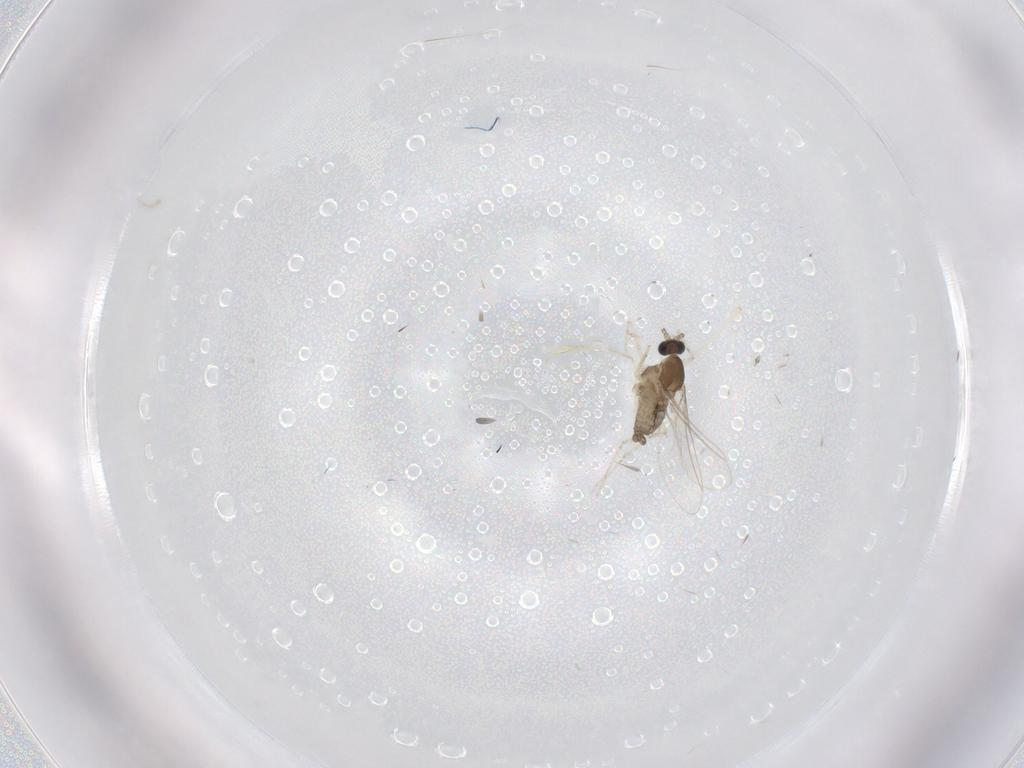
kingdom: Animalia
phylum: Arthropoda
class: Insecta
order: Diptera
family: Cecidomyiidae
